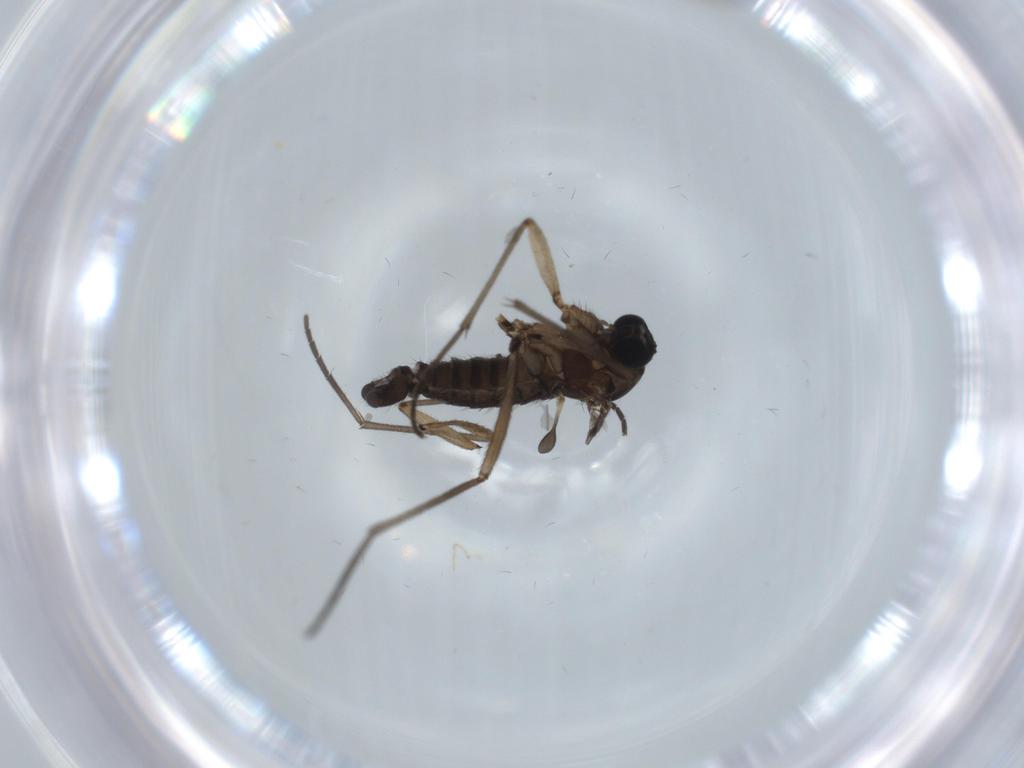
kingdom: Animalia
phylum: Arthropoda
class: Insecta
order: Diptera
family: Sciaridae
